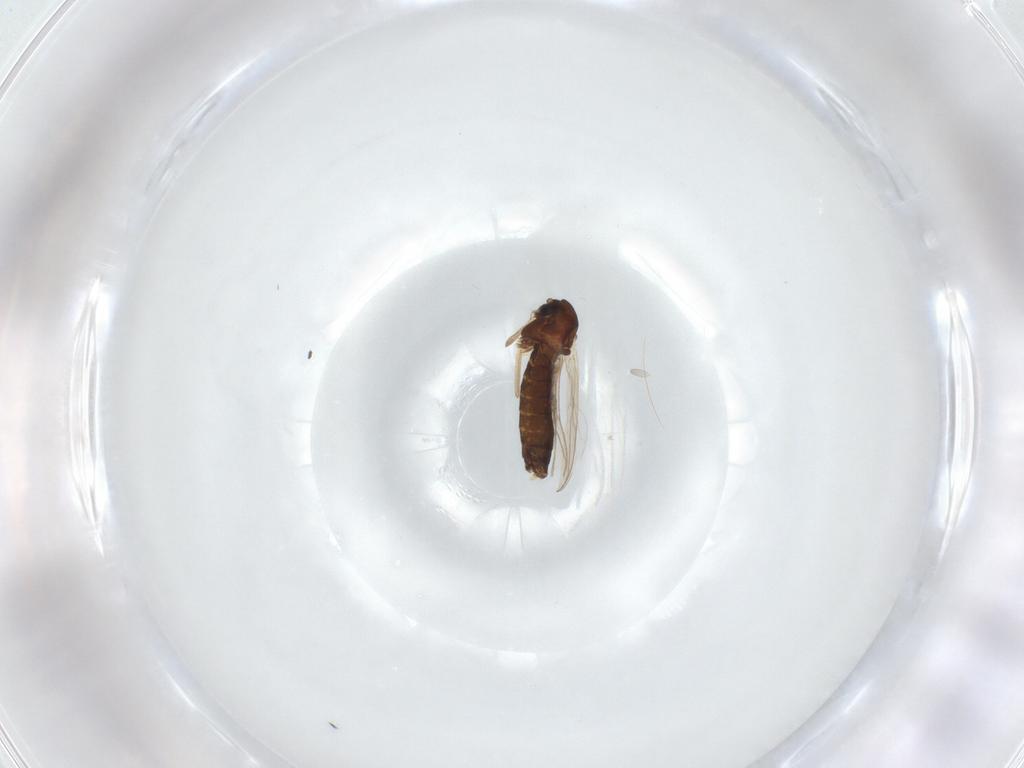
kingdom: Animalia
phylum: Arthropoda
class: Insecta
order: Diptera
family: Chironomidae
